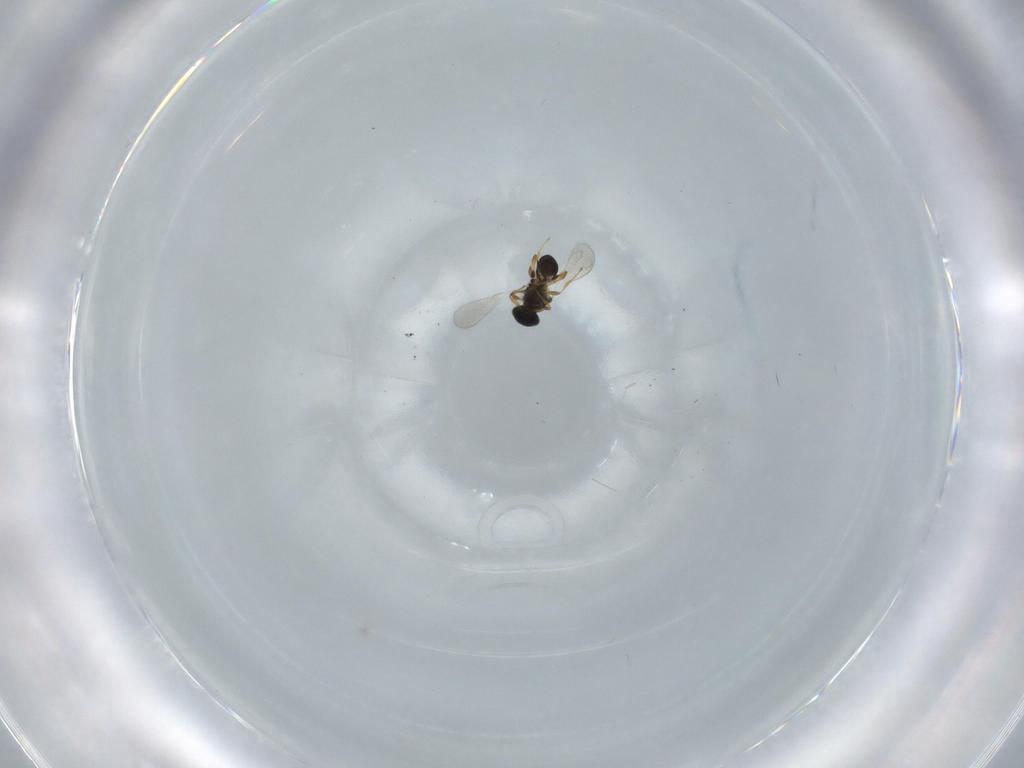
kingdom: Animalia
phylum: Arthropoda
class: Insecta
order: Hymenoptera
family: Platygastridae
